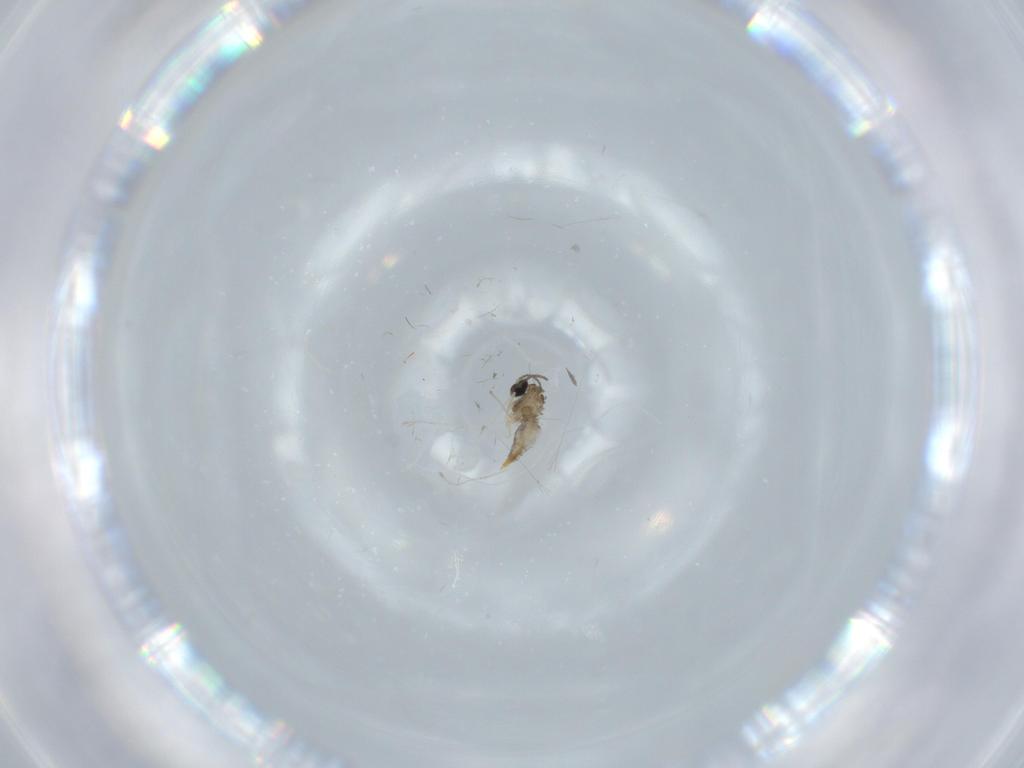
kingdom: Animalia
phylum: Arthropoda
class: Insecta
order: Diptera
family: Cecidomyiidae
